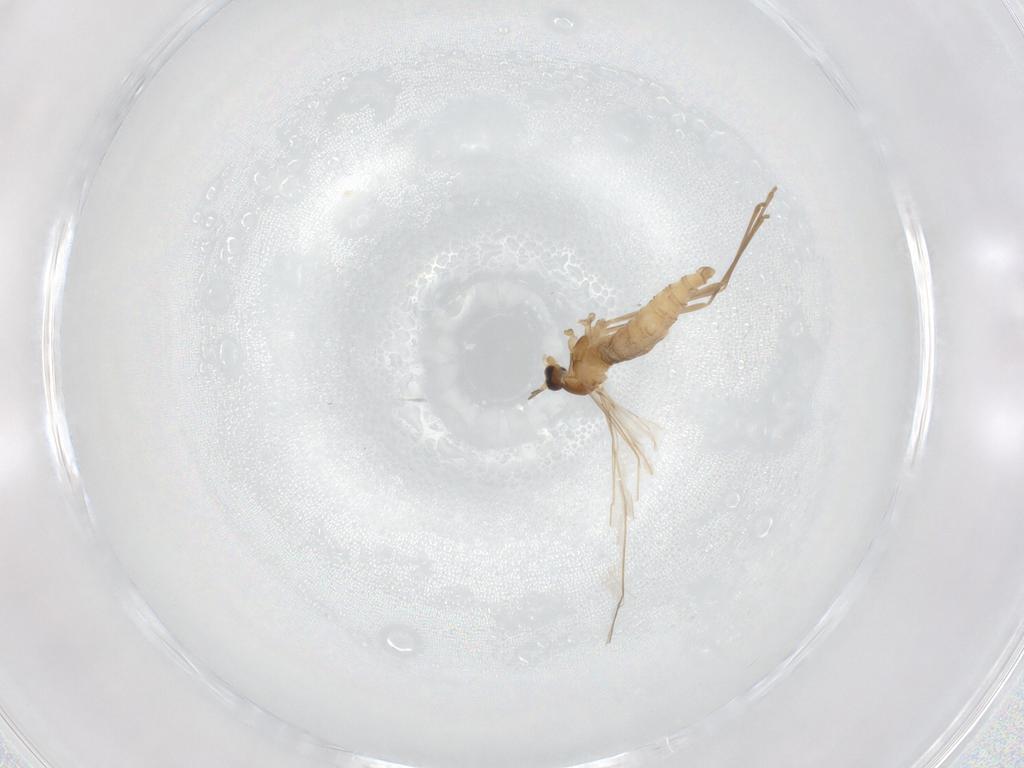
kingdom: Animalia
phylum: Arthropoda
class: Insecta
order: Diptera
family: Cecidomyiidae
